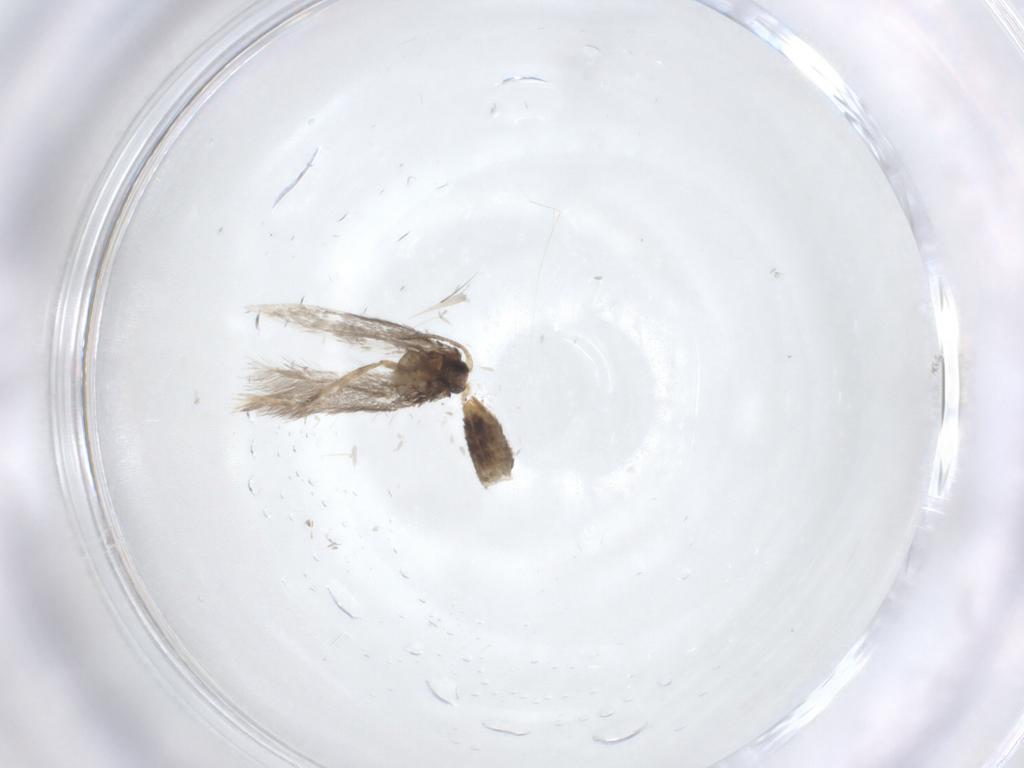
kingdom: Animalia
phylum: Arthropoda
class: Insecta
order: Lepidoptera
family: Nepticulidae
